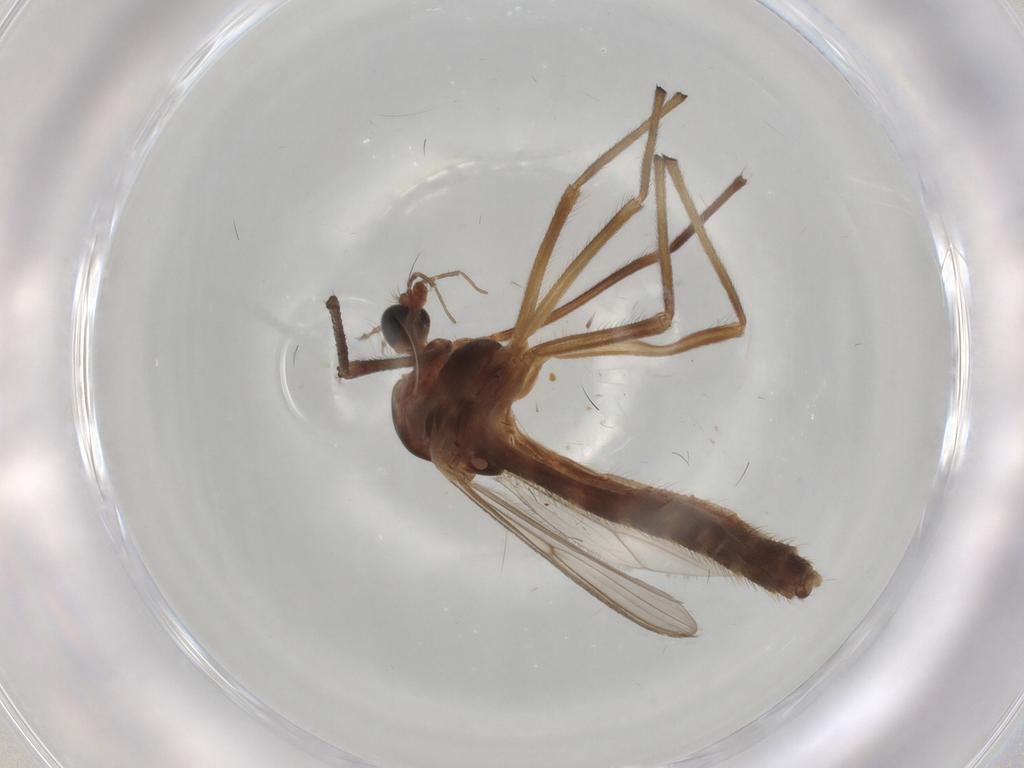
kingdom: Animalia
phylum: Arthropoda
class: Insecta
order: Diptera
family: Chironomidae
